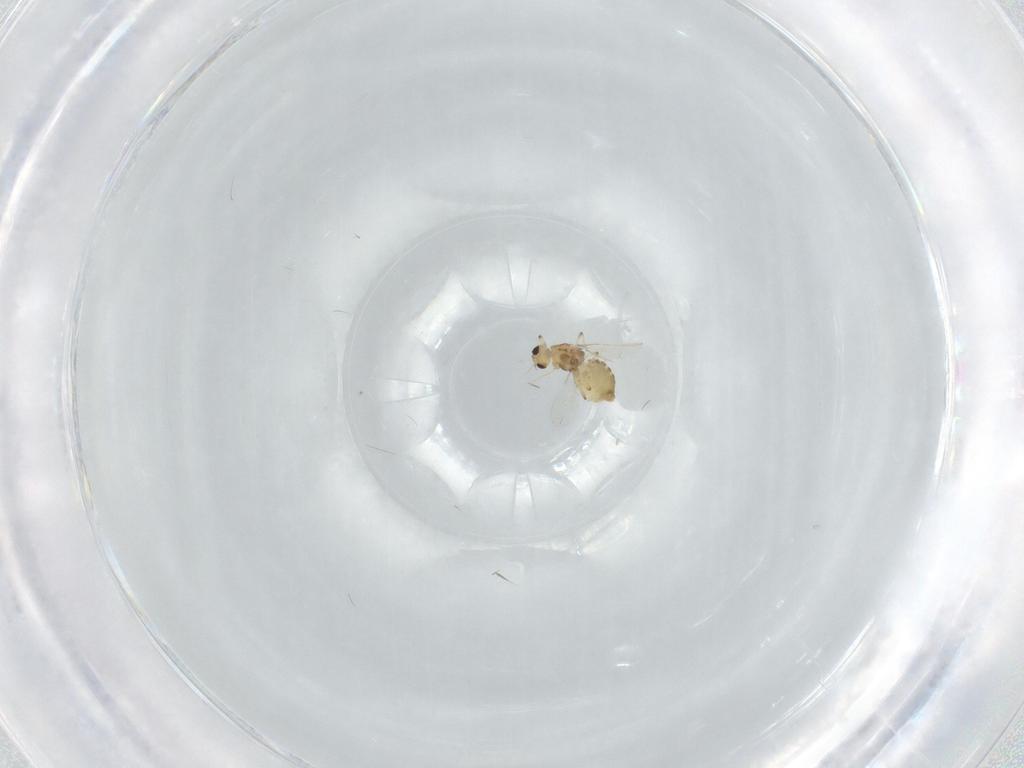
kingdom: Animalia
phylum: Arthropoda
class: Insecta
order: Diptera
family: Chironomidae
